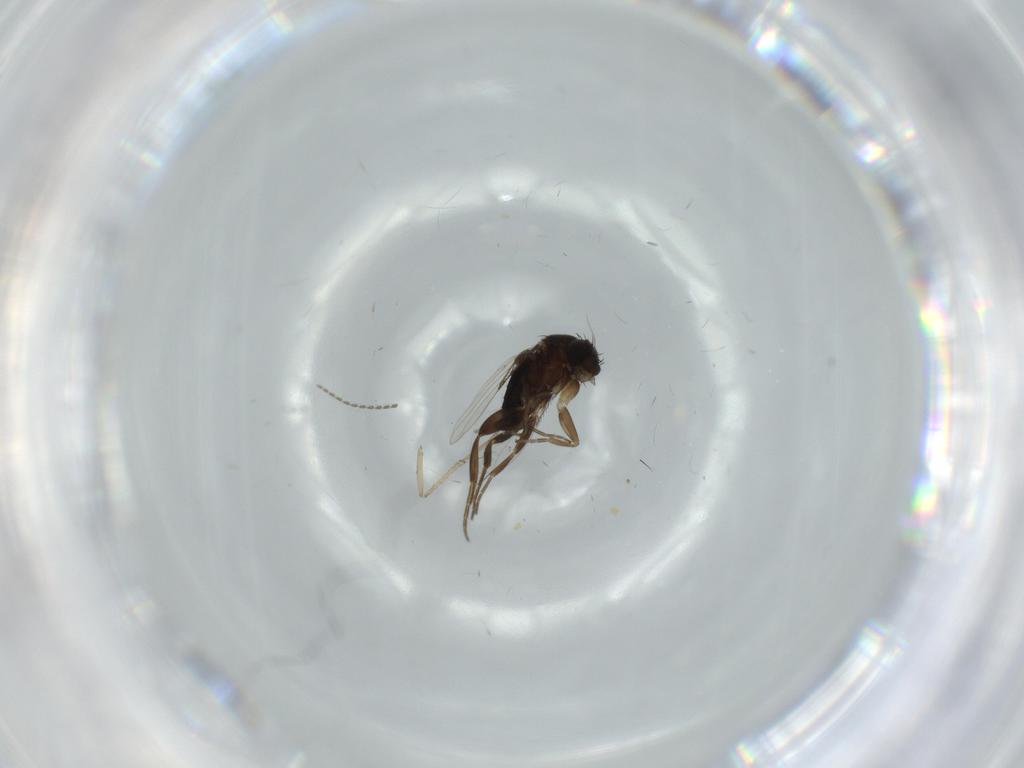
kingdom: Animalia
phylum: Arthropoda
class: Insecta
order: Diptera
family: Phoridae
